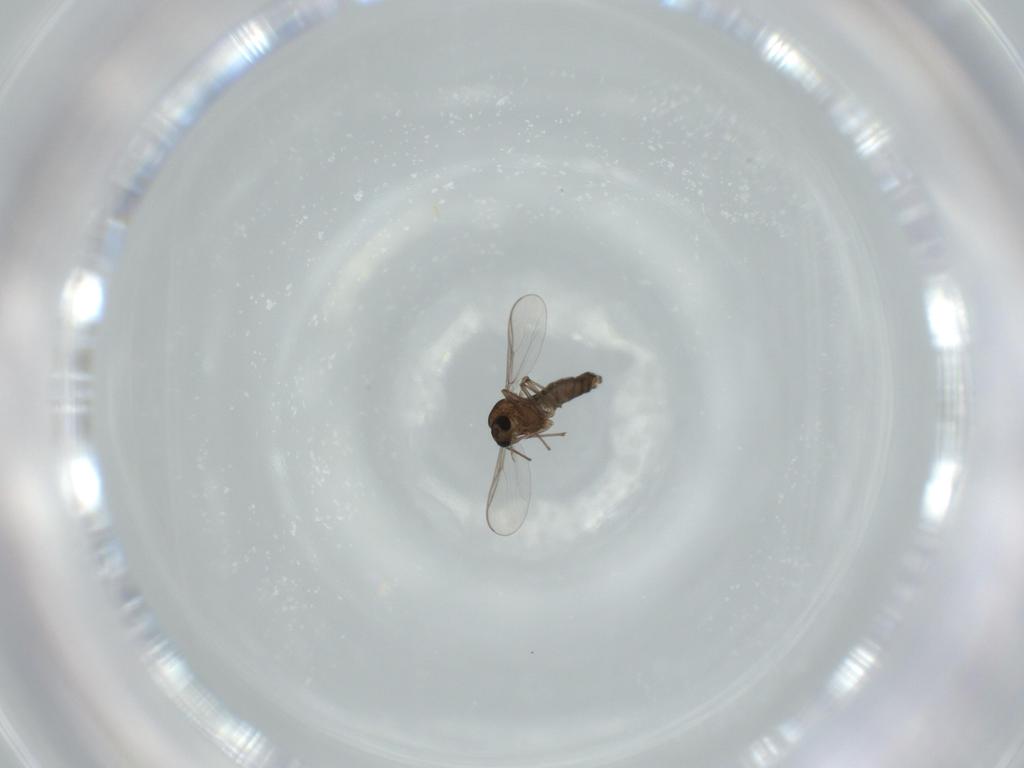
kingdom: Animalia
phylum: Arthropoda
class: Insecta
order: Diptera
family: Chironomidae
